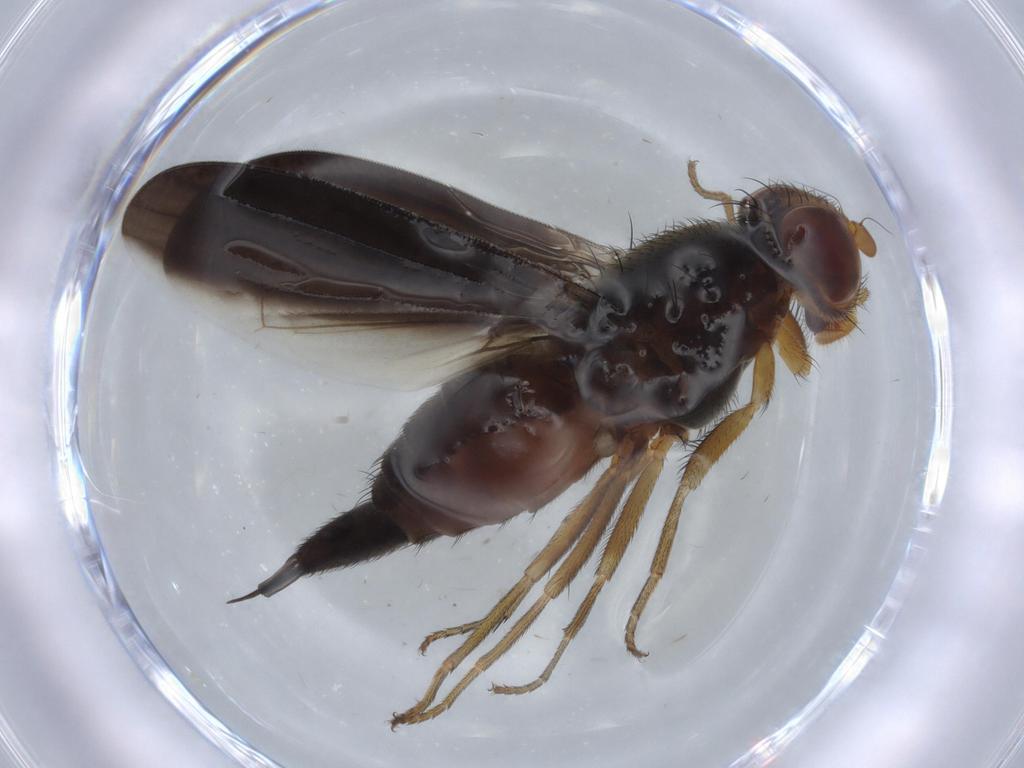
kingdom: Animalia
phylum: Arthropoda
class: Insecta
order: Diptera
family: Ulidiidae
